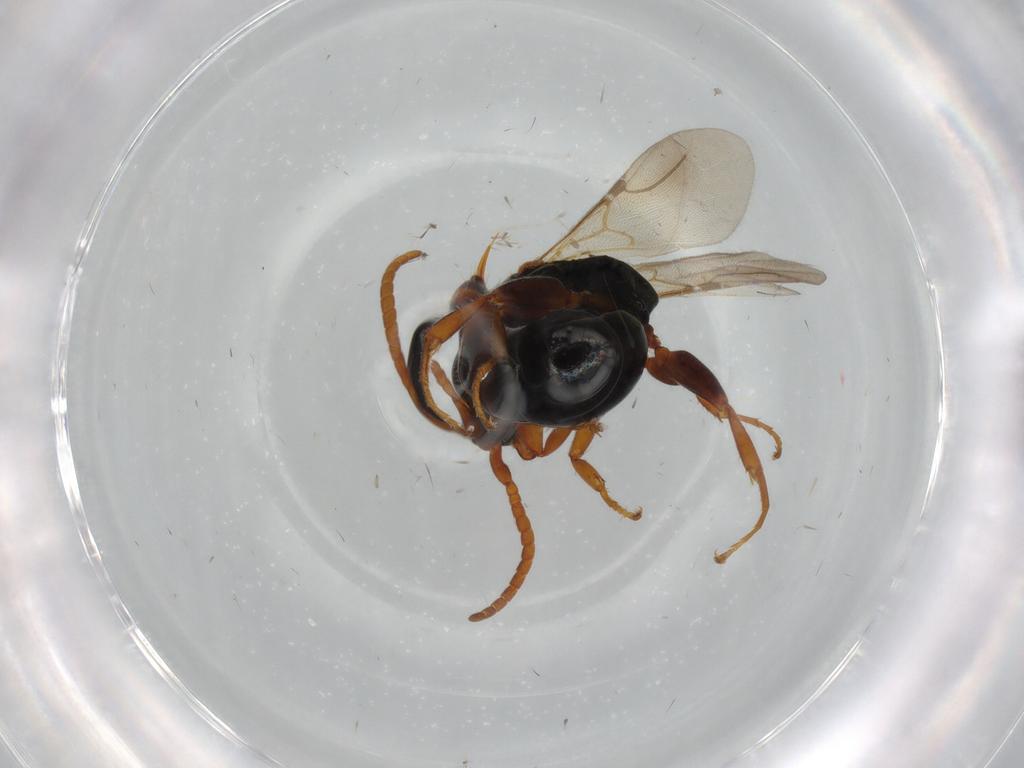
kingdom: Animalia
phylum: Arthropoda
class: Insecta
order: Hymenoptera
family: Bethylidae
